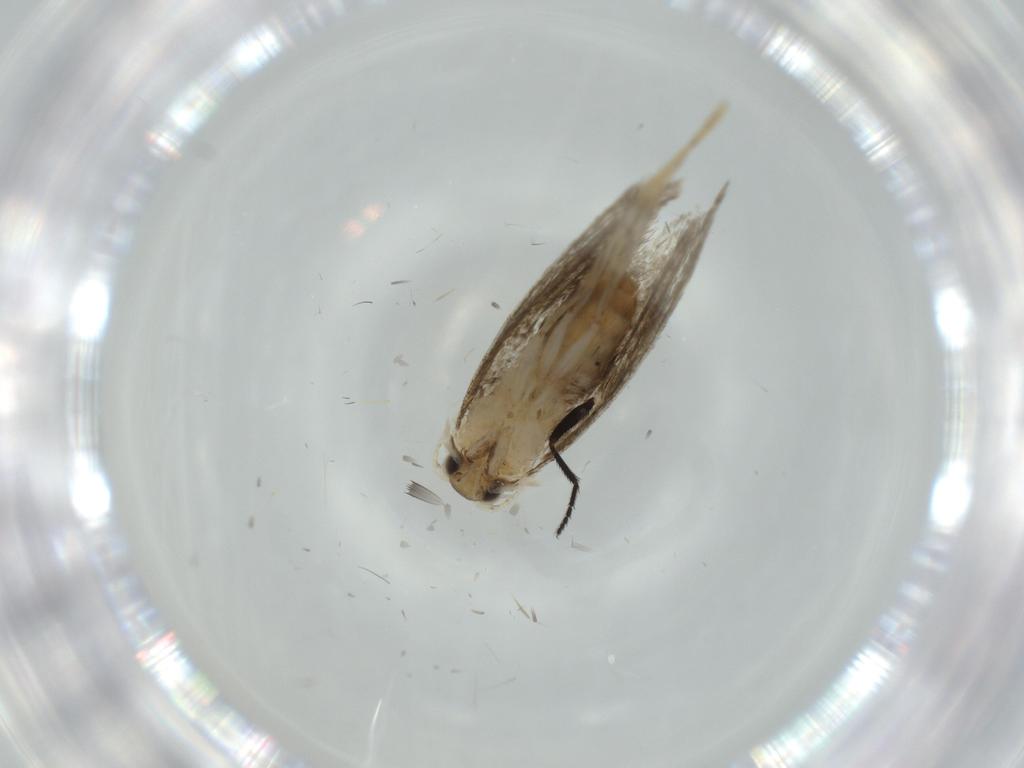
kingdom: Animalia
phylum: Arthropoda
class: Insecta
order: Lepidoptera
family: Tineidae
